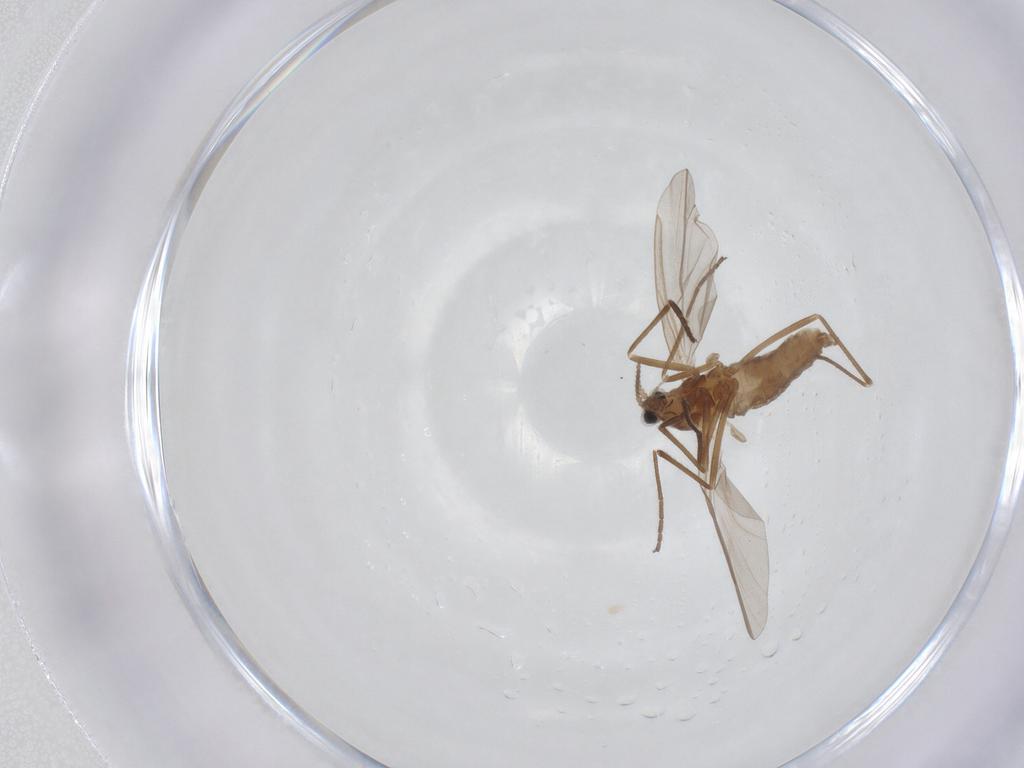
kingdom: Animalia
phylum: Arthropoda
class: Insecta
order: Diptera
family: Cecidomyiidae
